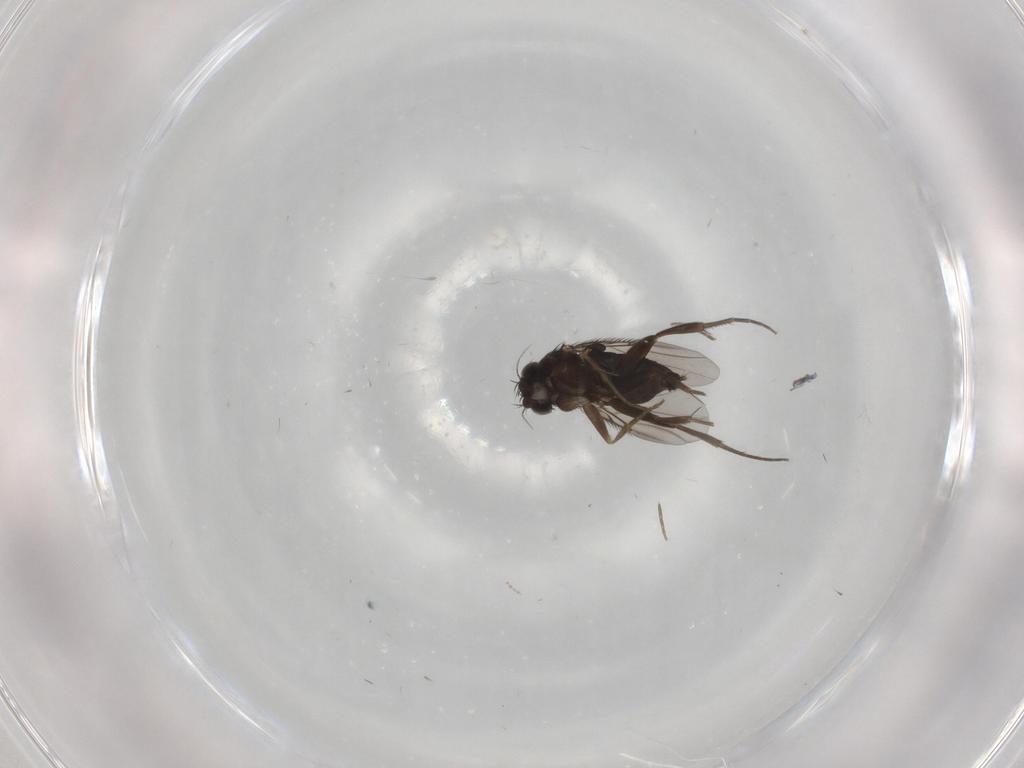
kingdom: Animalia
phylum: Arthropoda
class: Insecta
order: Diptera
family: Phoridae
